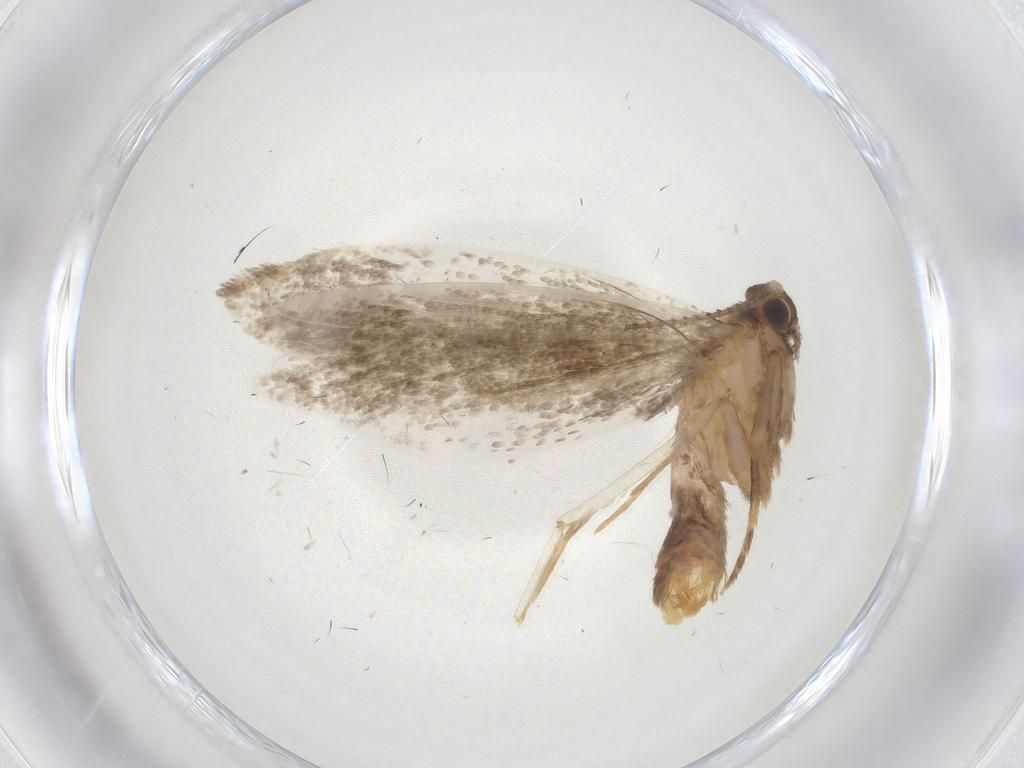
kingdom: Animalia
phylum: Arthropoda
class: Insecta
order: Lepidoptera
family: Dryadaulidae
